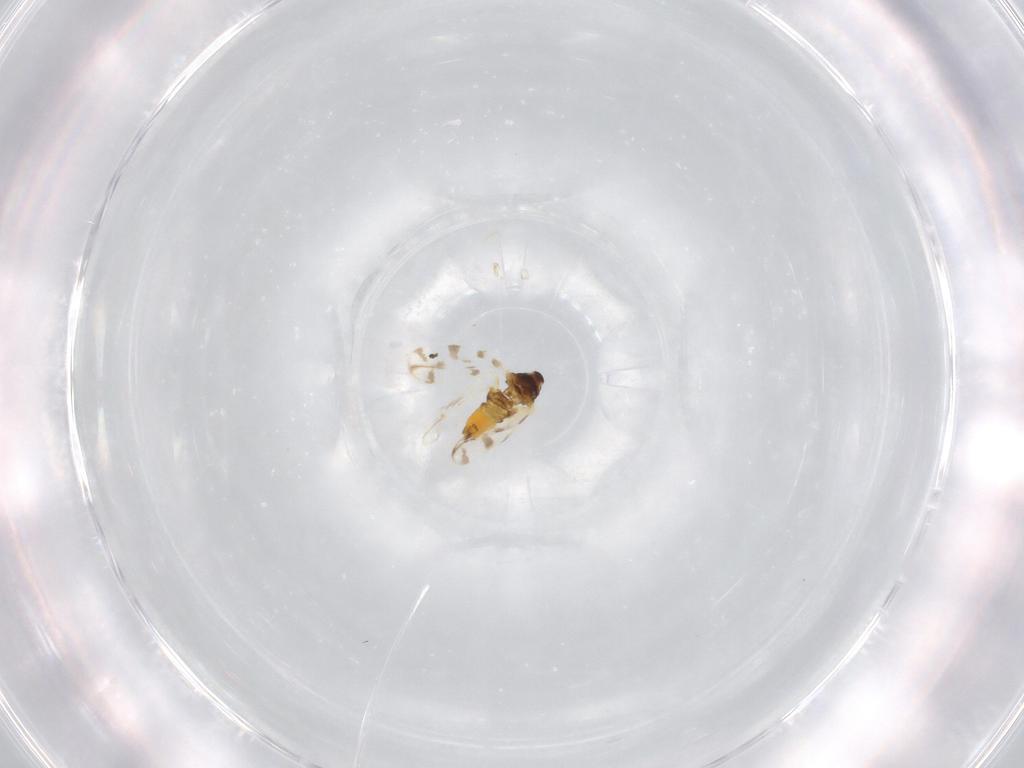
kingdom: Animalia
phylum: Arthropoda
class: Insecta
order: Hemiptera
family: Aleyrodidae
